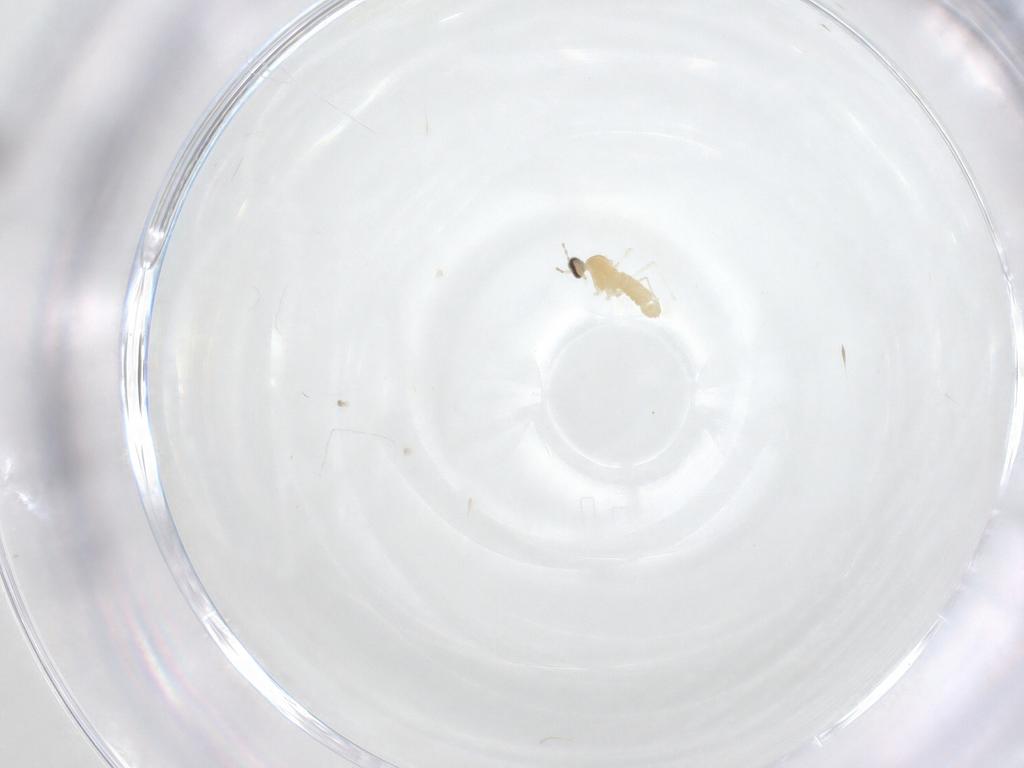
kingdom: Animalia
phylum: Arthropoda
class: Insecta
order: Diptera
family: Cecidomyiidae
